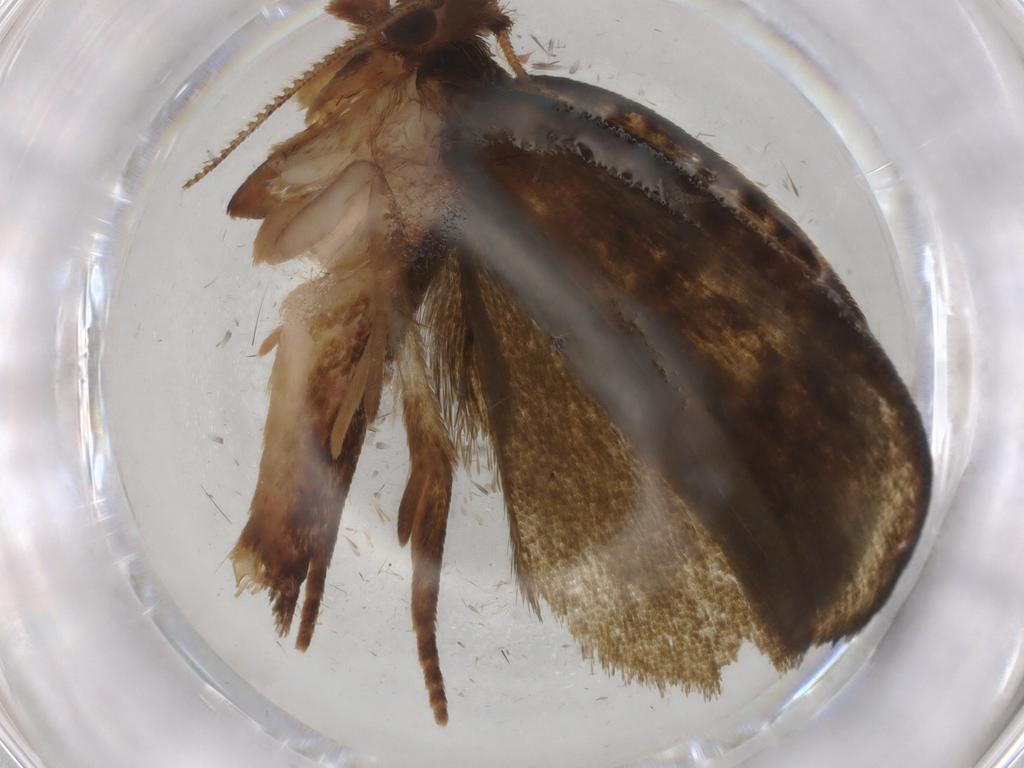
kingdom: Animalia
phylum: Arthropoda
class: Insecta
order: Lepidoptera
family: Geometridae
